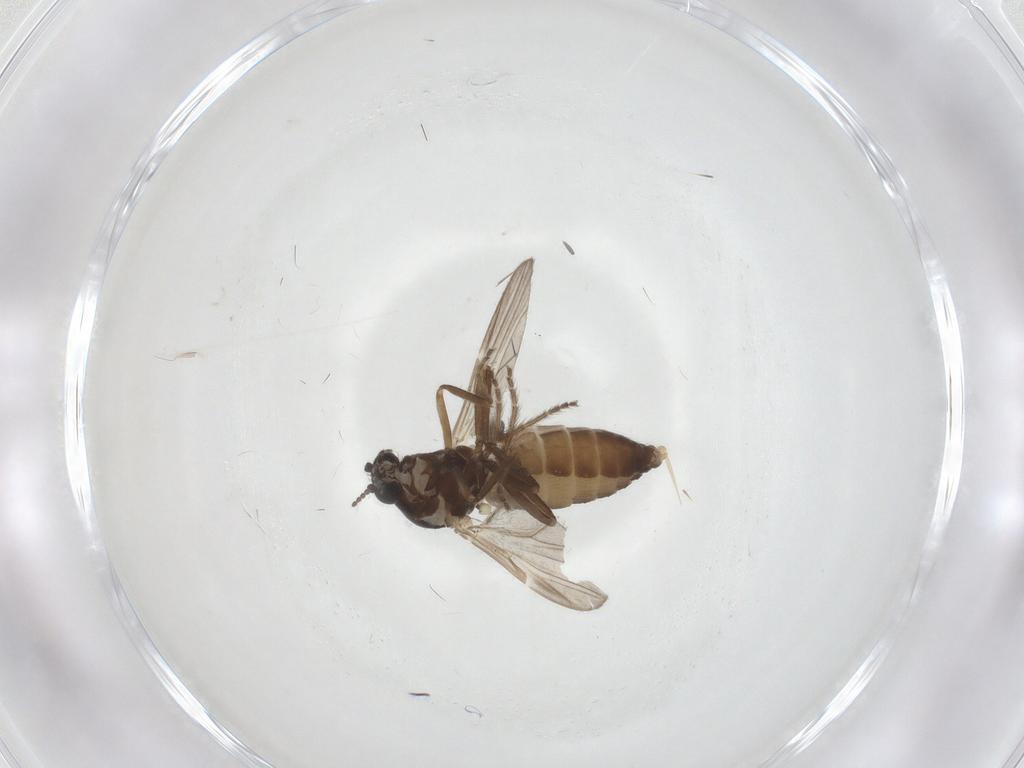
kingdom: Animalia
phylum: Arthropoda
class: Insecta
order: Diptera
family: Ceratopogonidae
